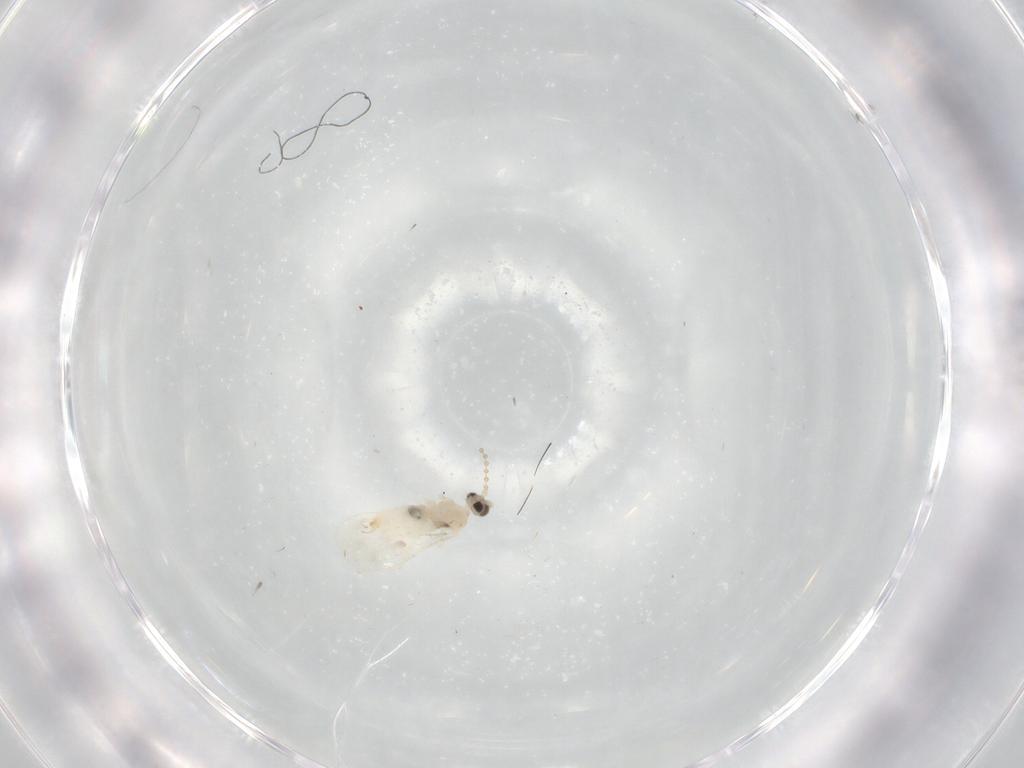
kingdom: Animalia
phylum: Arthropoda
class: Insecta
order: Diptera
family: Cecidomyiidae
